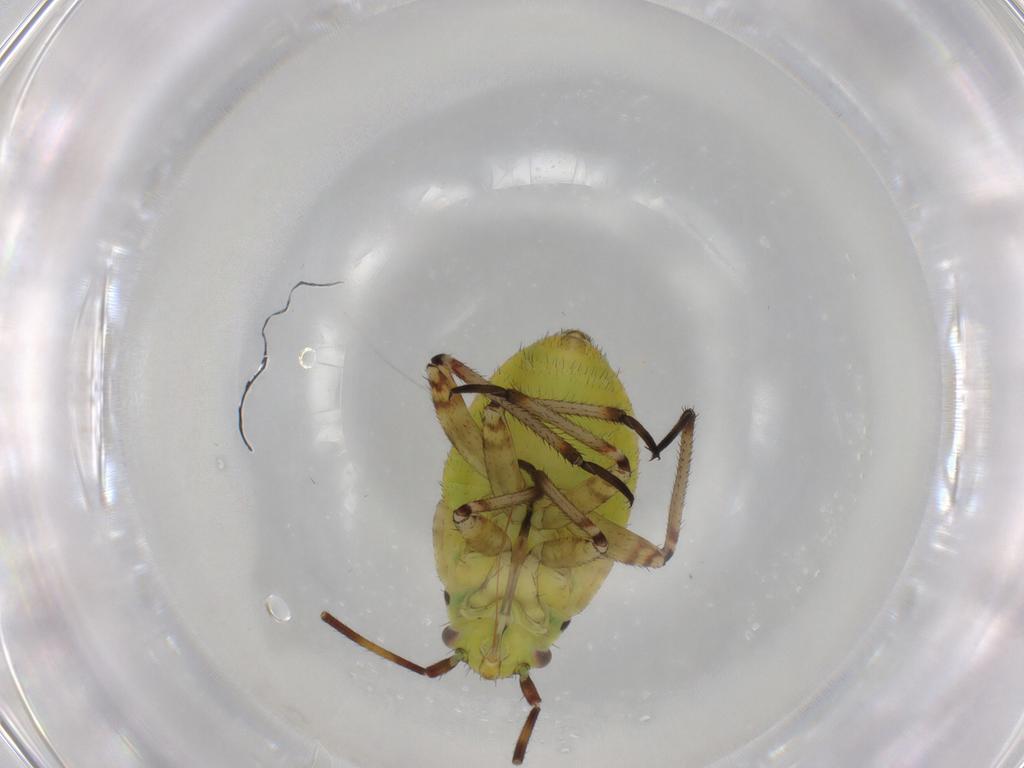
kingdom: Animalia
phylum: Arthropoda
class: Insecta
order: Hemiptera
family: Miridae
